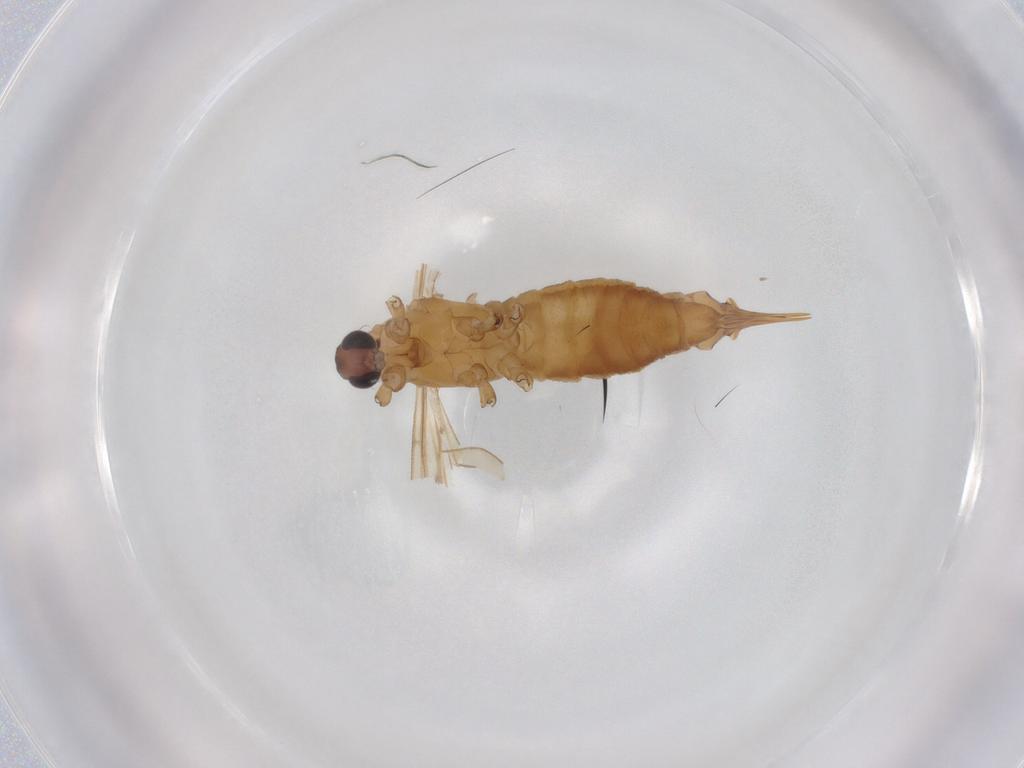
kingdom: Animalia
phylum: Arthropoda
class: Insecta
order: Diptera
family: Limoniidae
